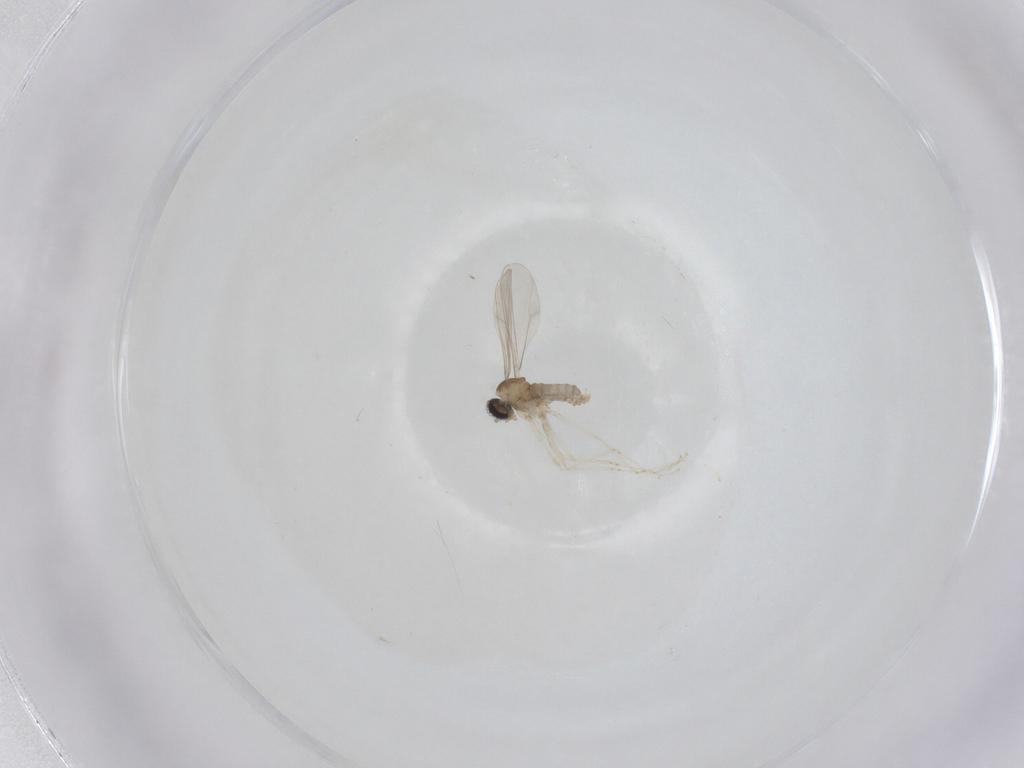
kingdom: Animalia
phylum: Arthropoda
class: Insecta
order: Diptera
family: Cecidomyiidae
